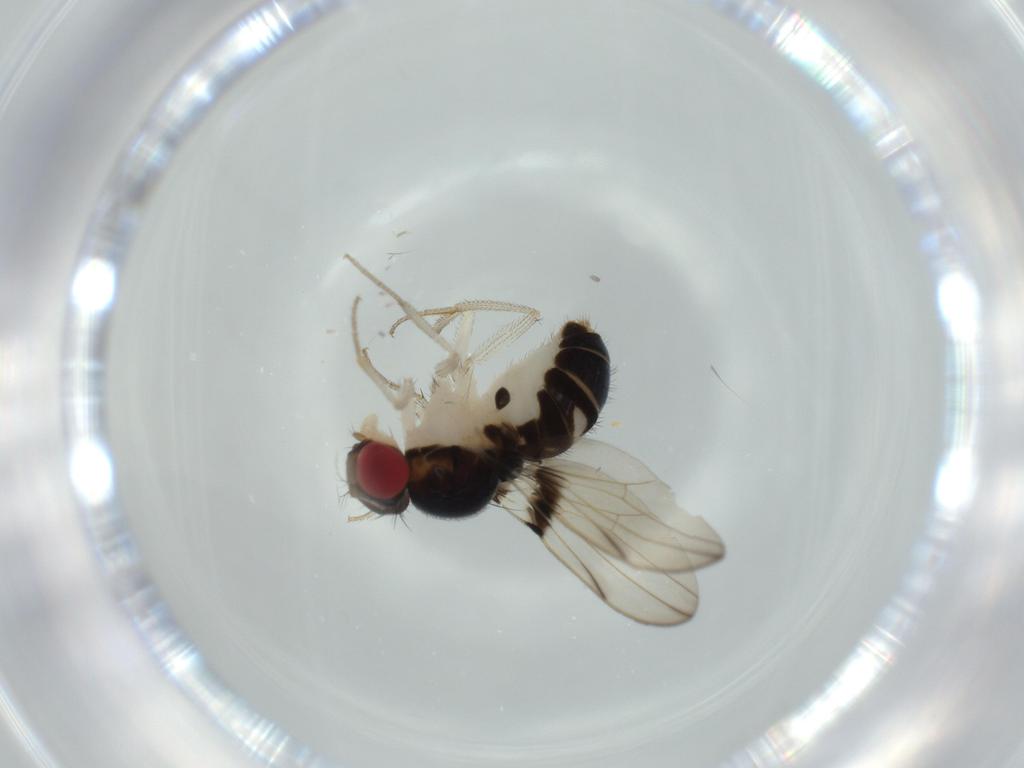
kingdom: Animalia
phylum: Arthropoda
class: Insecta
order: Diptera
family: Drosophilidae
